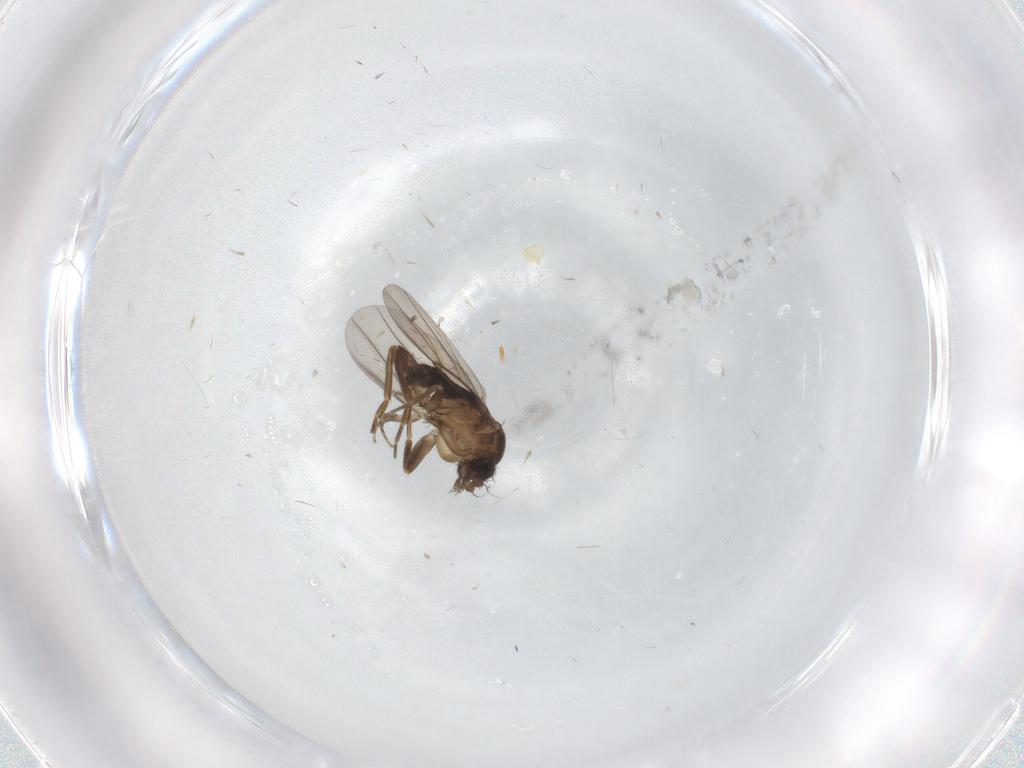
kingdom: Animalia
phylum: Arthropoda
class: Insecta
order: Diptera
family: Phoridae
